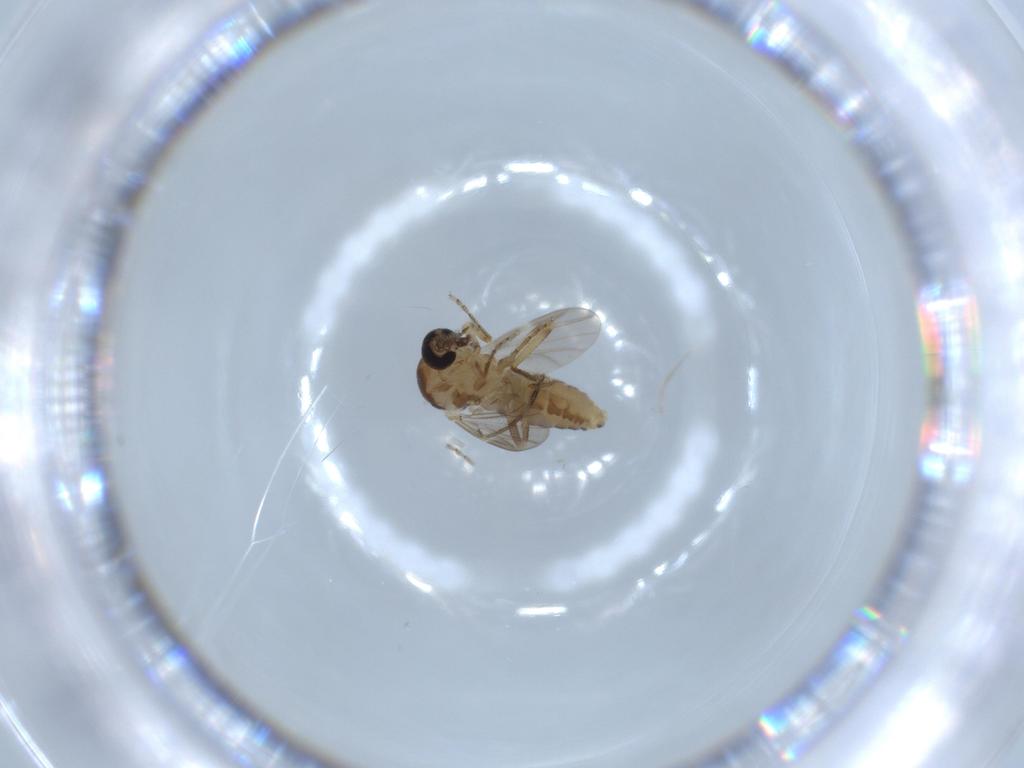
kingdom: Animalia
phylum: Arthropoda
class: Insecta
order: Diptera
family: Ceratopogonidae
